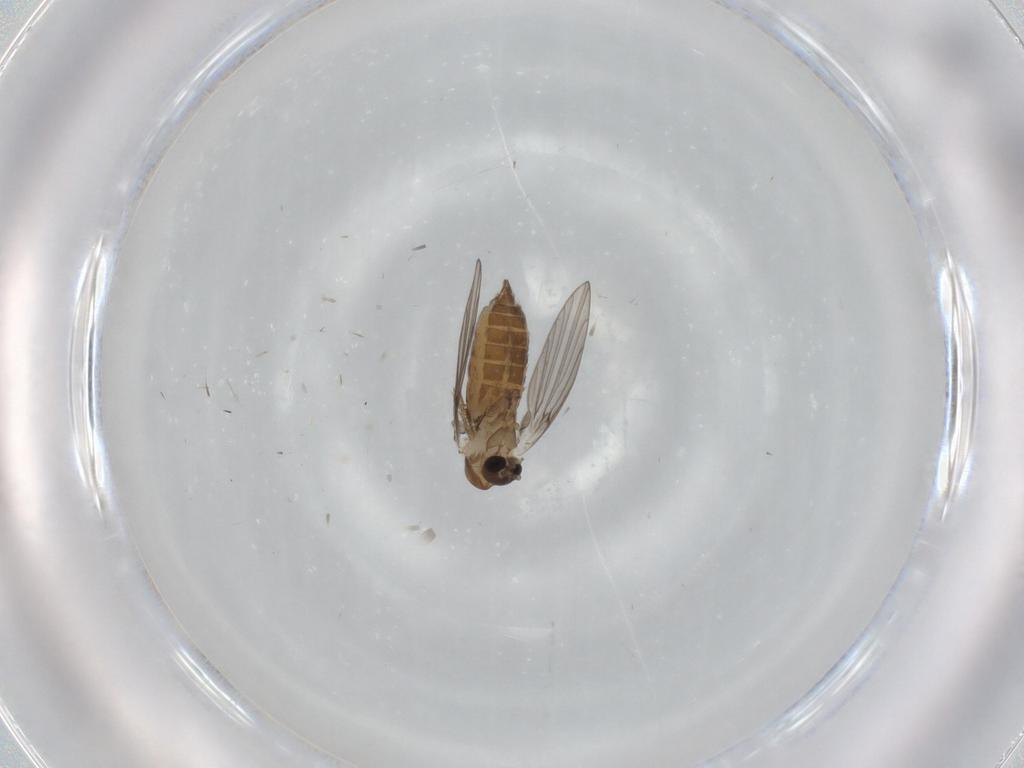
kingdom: Animalia
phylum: Arthropoda
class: Insecta
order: Diptera
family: Psychodidae
